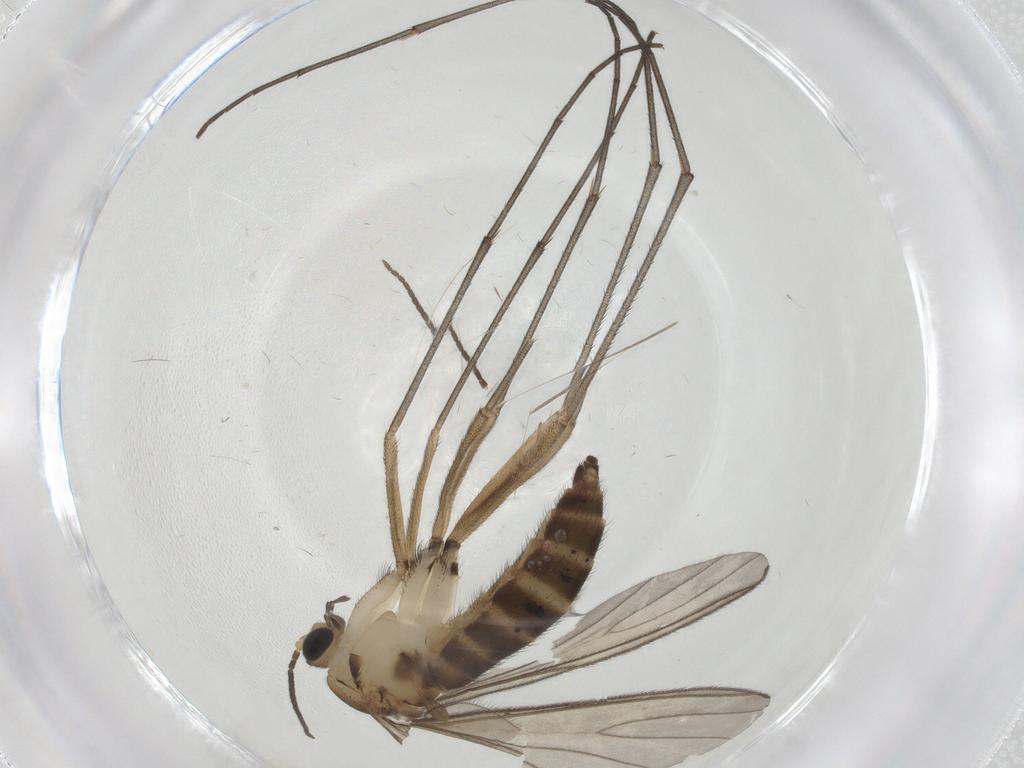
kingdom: Animalia
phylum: Arthropoda
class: Insecta
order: Diptera
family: Sciaridae
